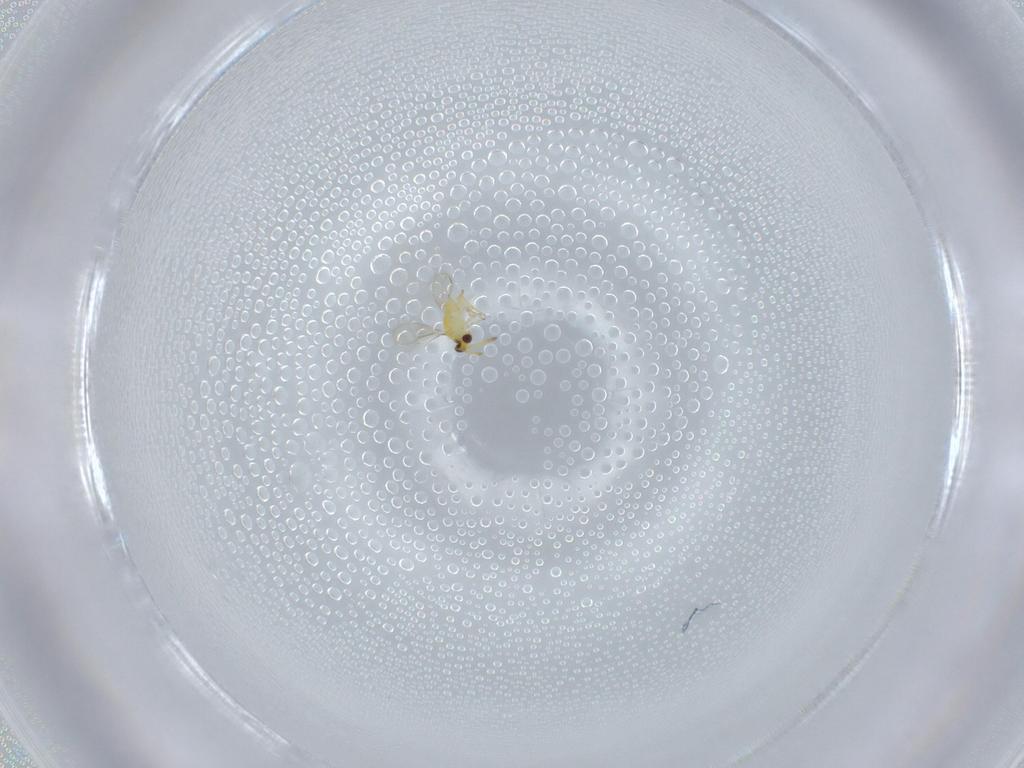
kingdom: Animalia
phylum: Arthropoda
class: Insecta
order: Hymenoptera
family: Aphelinidae
